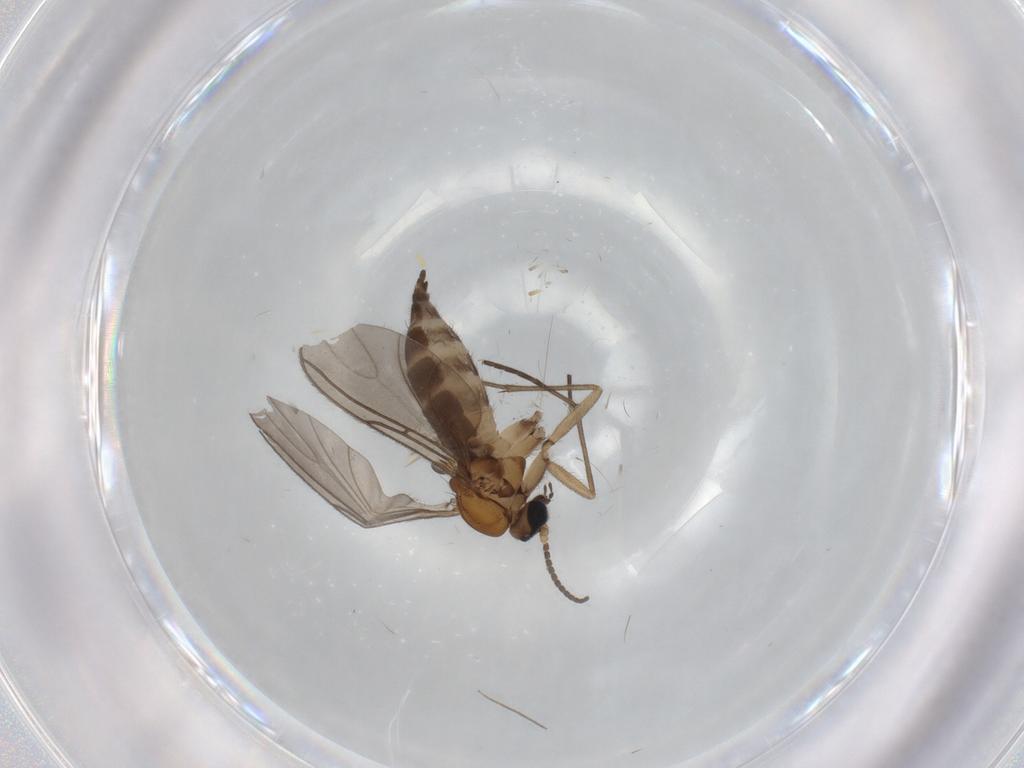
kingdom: Animalia
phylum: Arthropoda
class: Insecta
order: Diptera
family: Sciaridae
